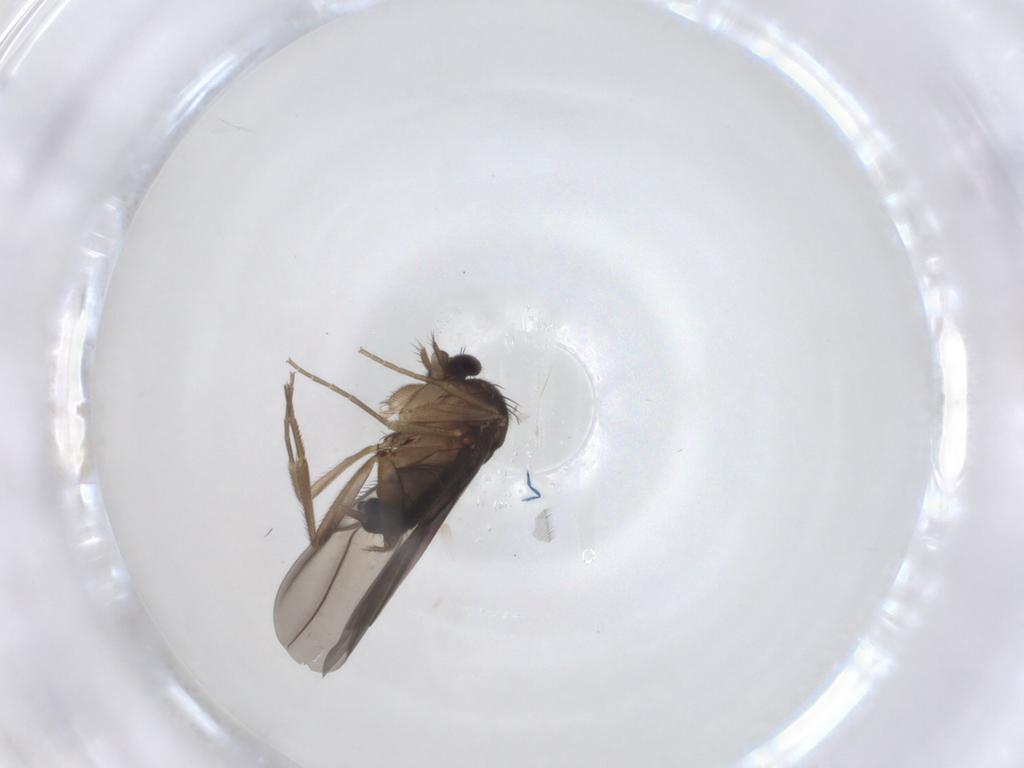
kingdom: Animalia
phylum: Arthropoda
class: Insecta
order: Diptera
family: Phoridae
